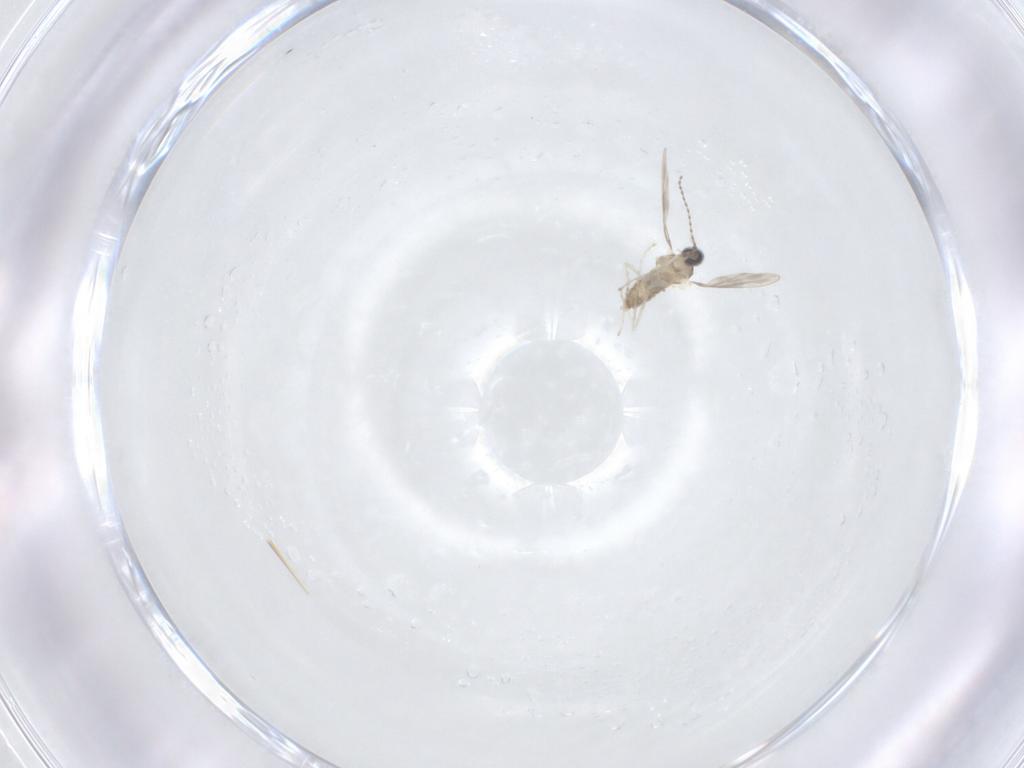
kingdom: Animalia
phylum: Arthropoda
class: Insecta
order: Diptera
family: Cecidomyiidae
